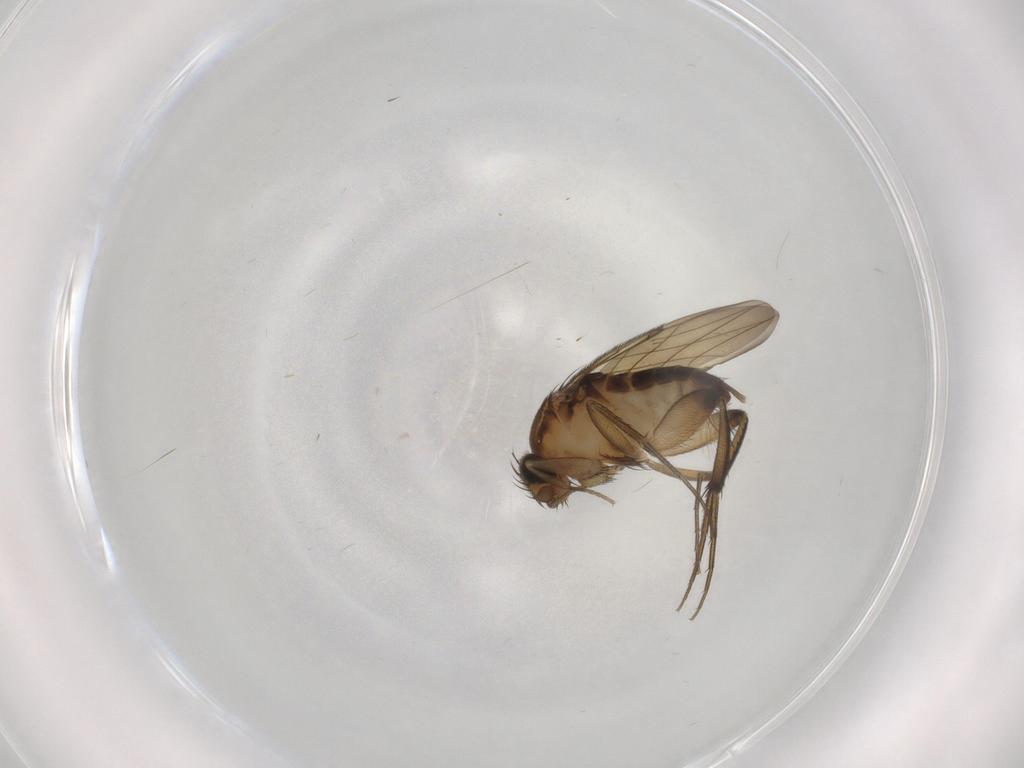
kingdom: Animalia
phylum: Arthropoda
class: Insecta
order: Diptera
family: Phoridae
